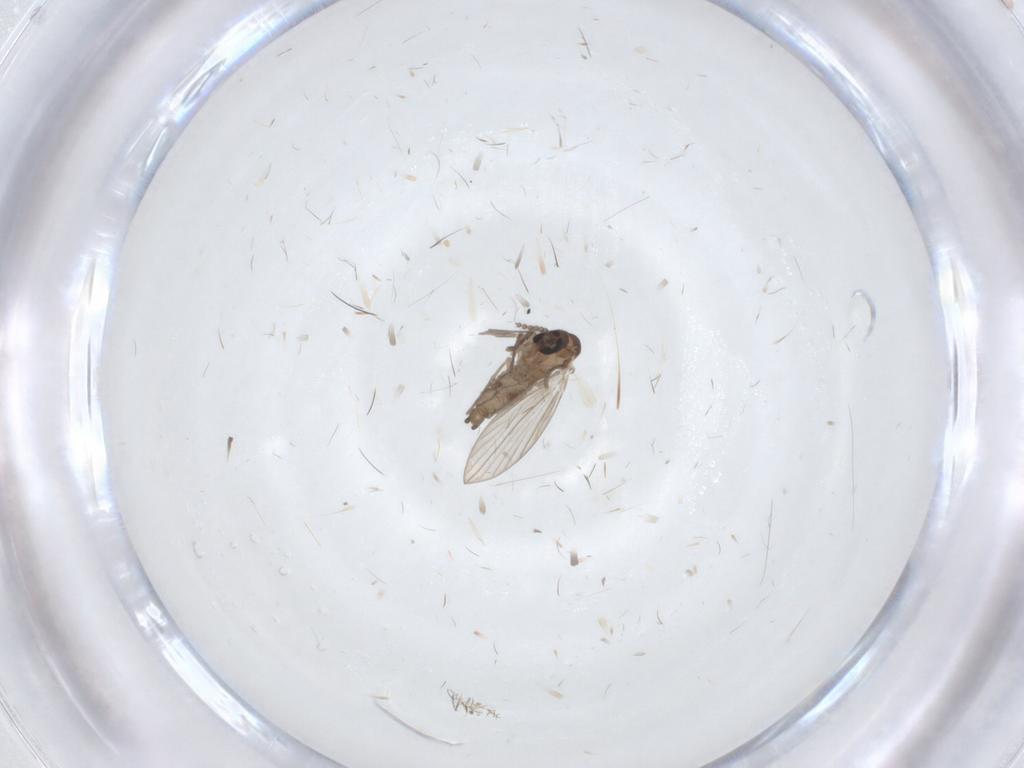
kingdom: Animalia
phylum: Arthropoda
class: Insecta
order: Diptera
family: Psychodidae
